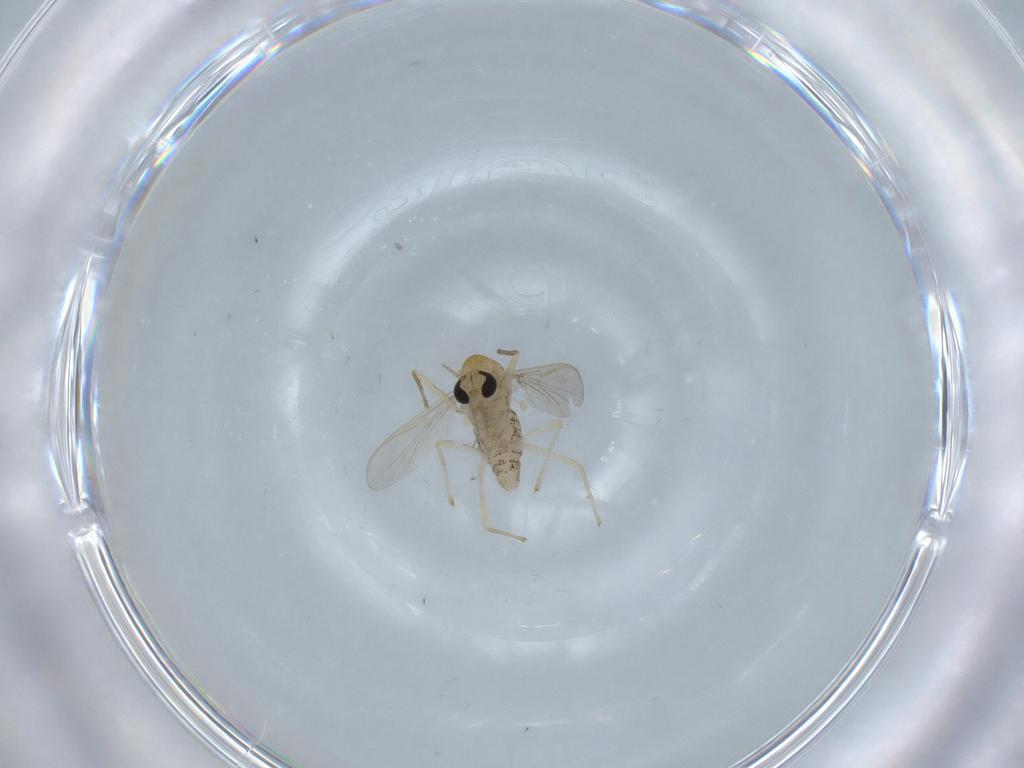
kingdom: Animalia
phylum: Arthropoda
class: Insecta
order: Diptera
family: Chironomidae
